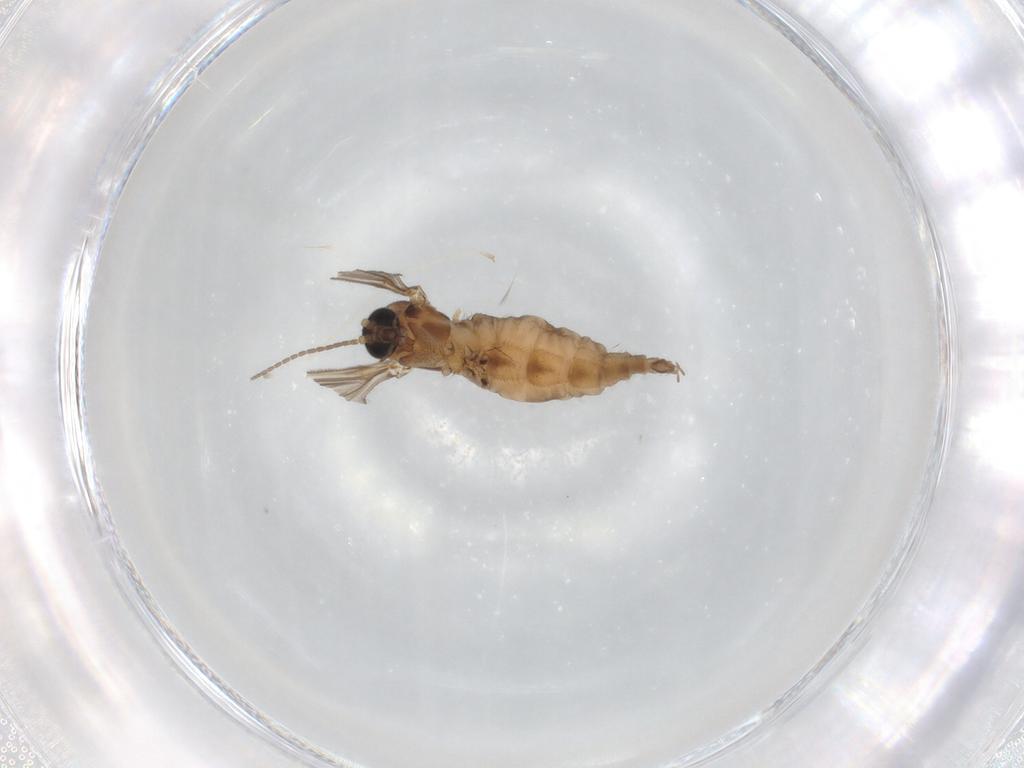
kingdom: Animalia
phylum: Arthropoda
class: Insecta
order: Diptera
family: Sciaridae
